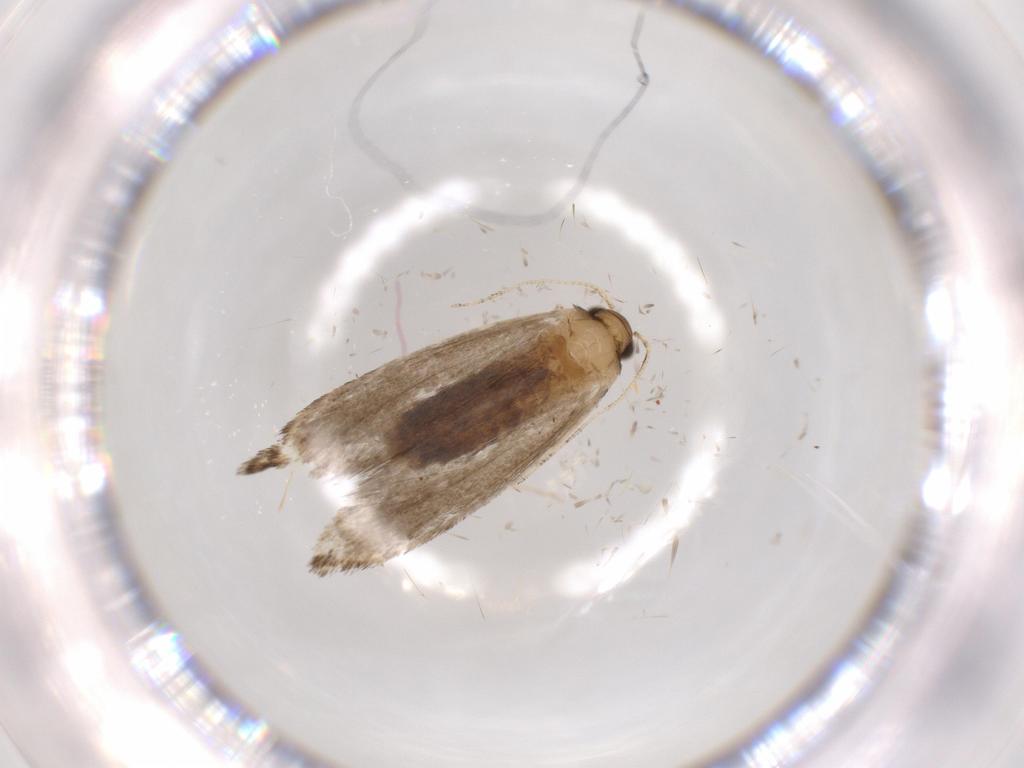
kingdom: Animalia
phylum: Arthropoda
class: Insecta
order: Lepidoptera
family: Tineidae
